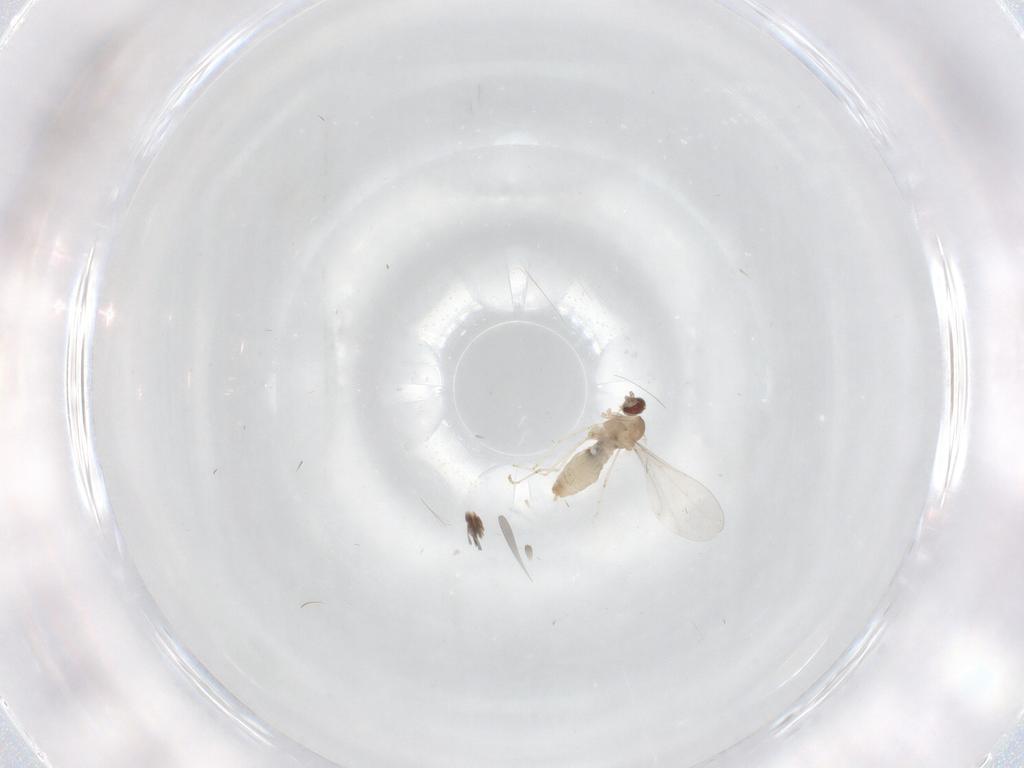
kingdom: Animalia
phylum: Arthropoda
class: Insecta
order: Diptera
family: Cecidomyiidae
